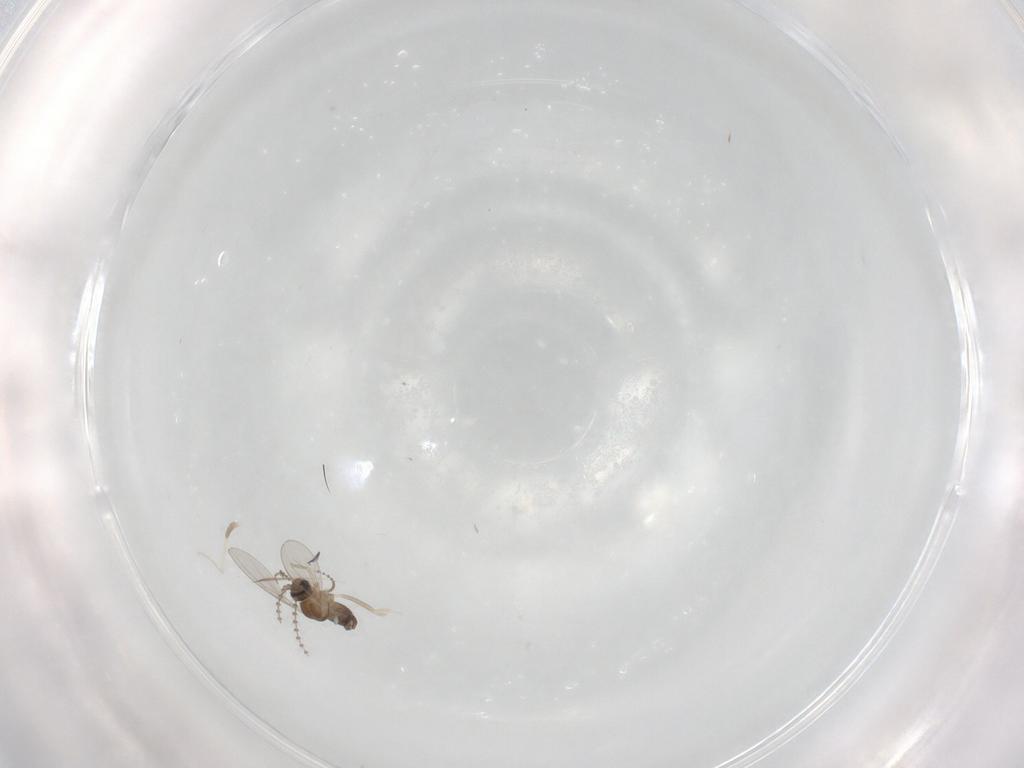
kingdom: Animalia
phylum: Arthropoda
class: Insecta
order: Diptera
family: Cecidomyiidae
